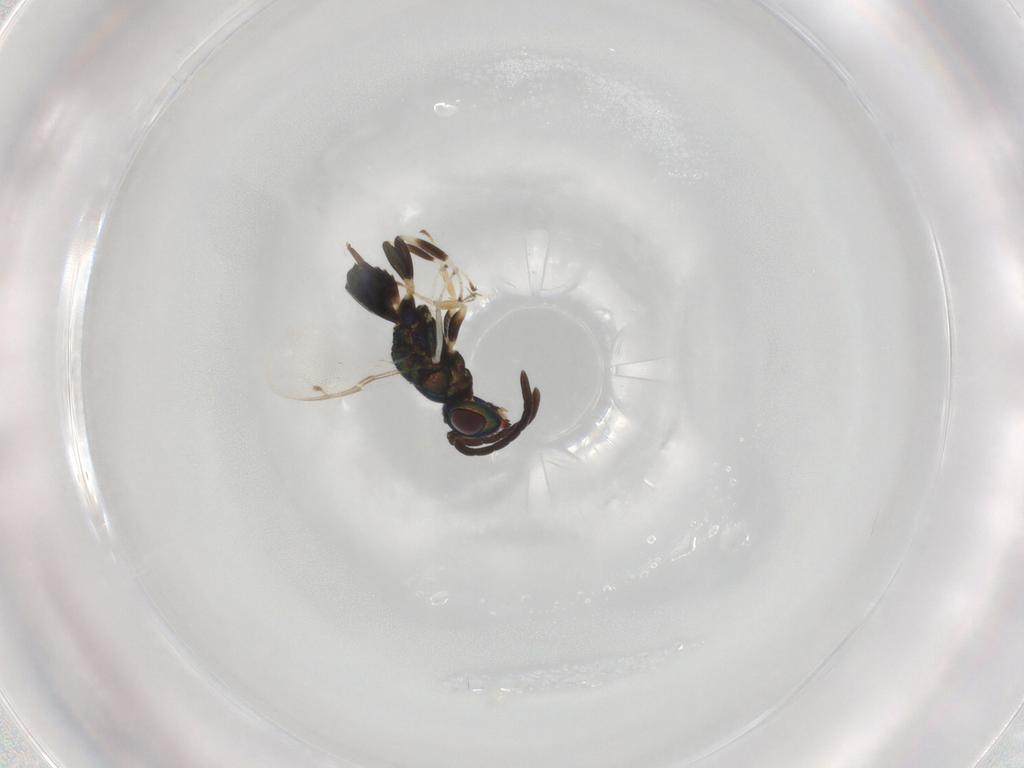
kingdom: Animalia
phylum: Arthropoda
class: Insecta
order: Hymenoptera
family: Eupelmidae
